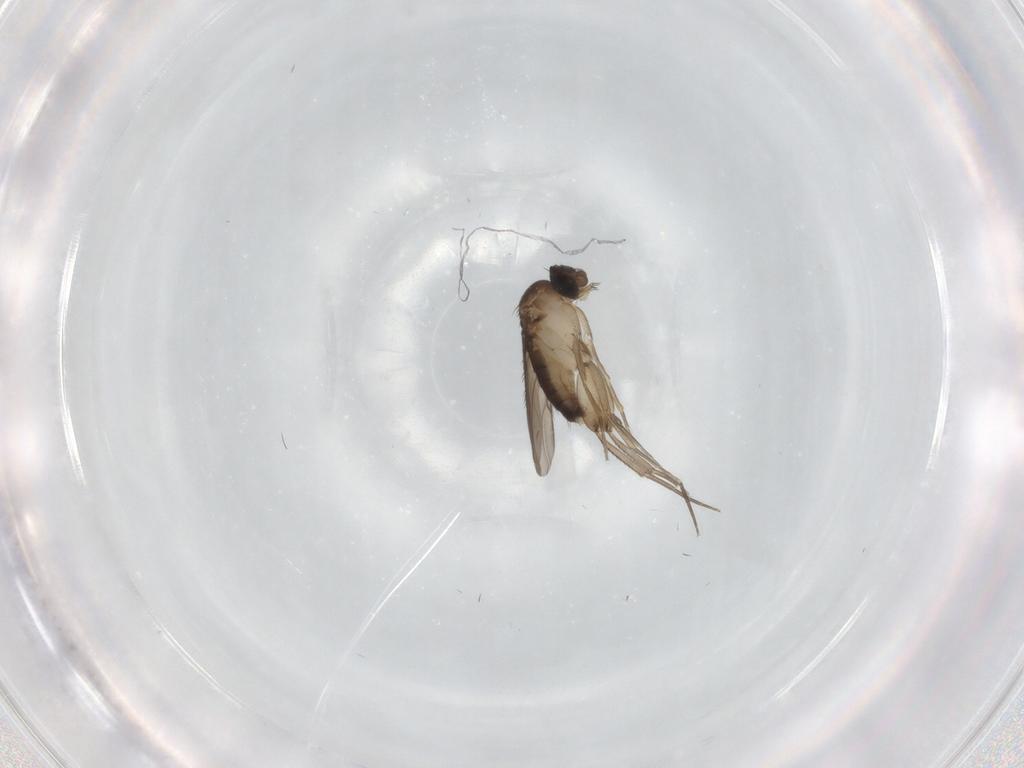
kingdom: Animalia
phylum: Arthropoda
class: Insecta
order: Diptera
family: Phoridae
